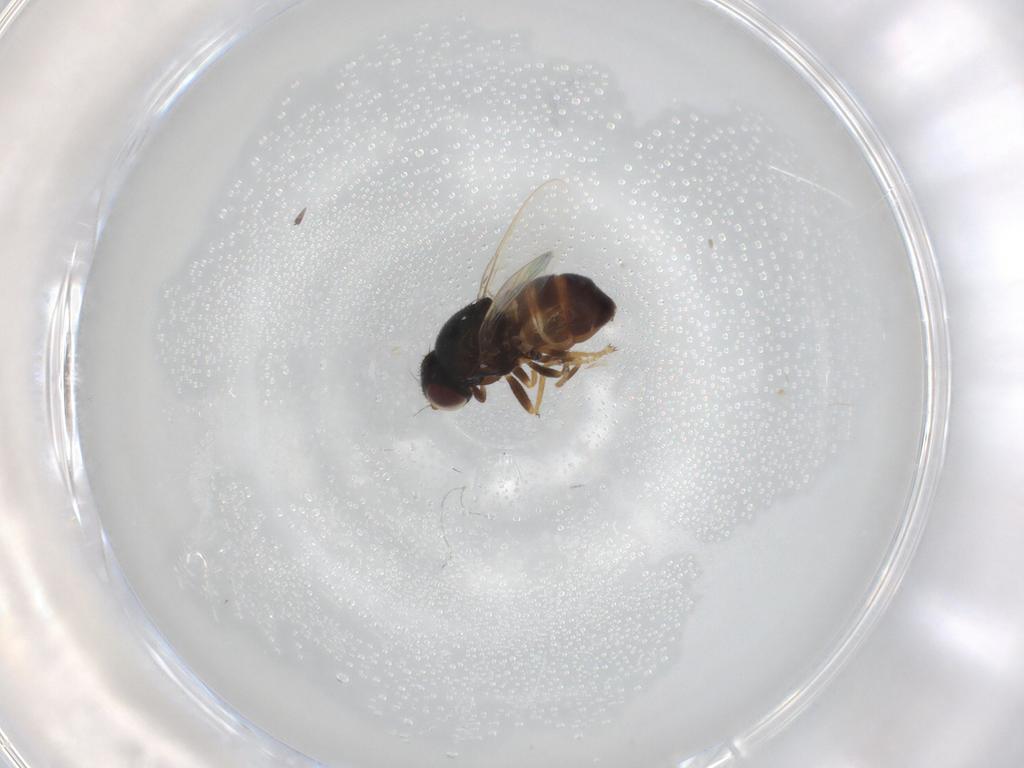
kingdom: Animalia
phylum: Arthropoda
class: Insecta
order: Diptera
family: Chloropidae
